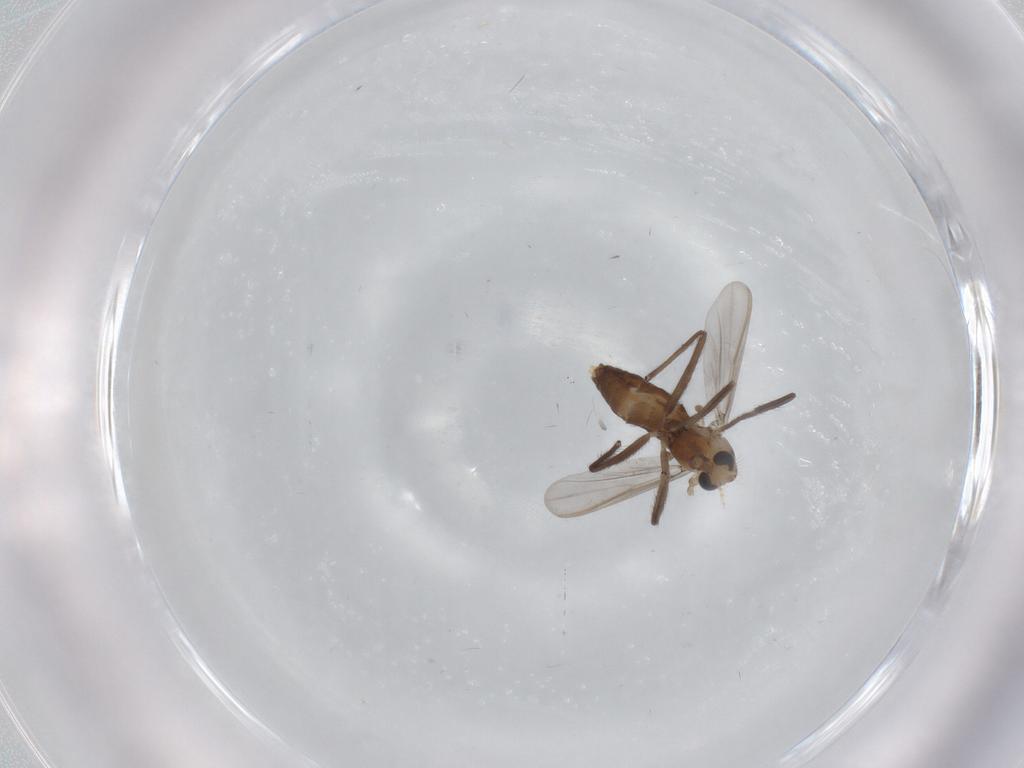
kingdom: Animalia
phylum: Arthropoda
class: Insecta
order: Diptera
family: Chironomidae
